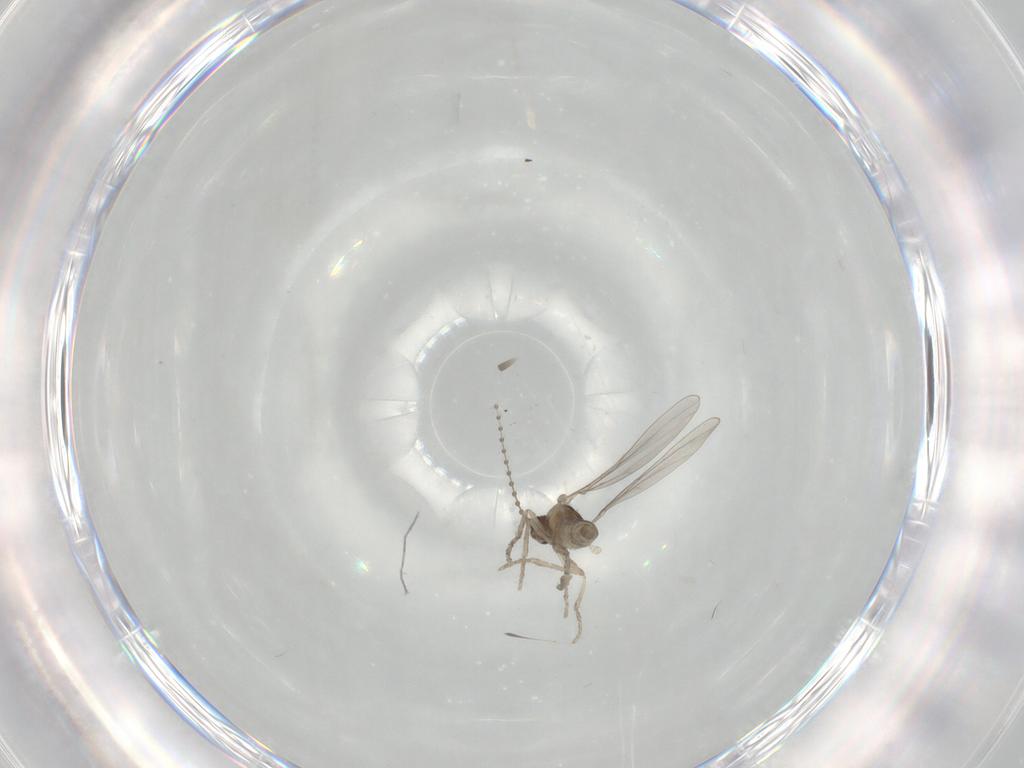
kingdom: Animalia
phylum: Arthropoda
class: Insecta
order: Diptera
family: Cecidomyiidae
